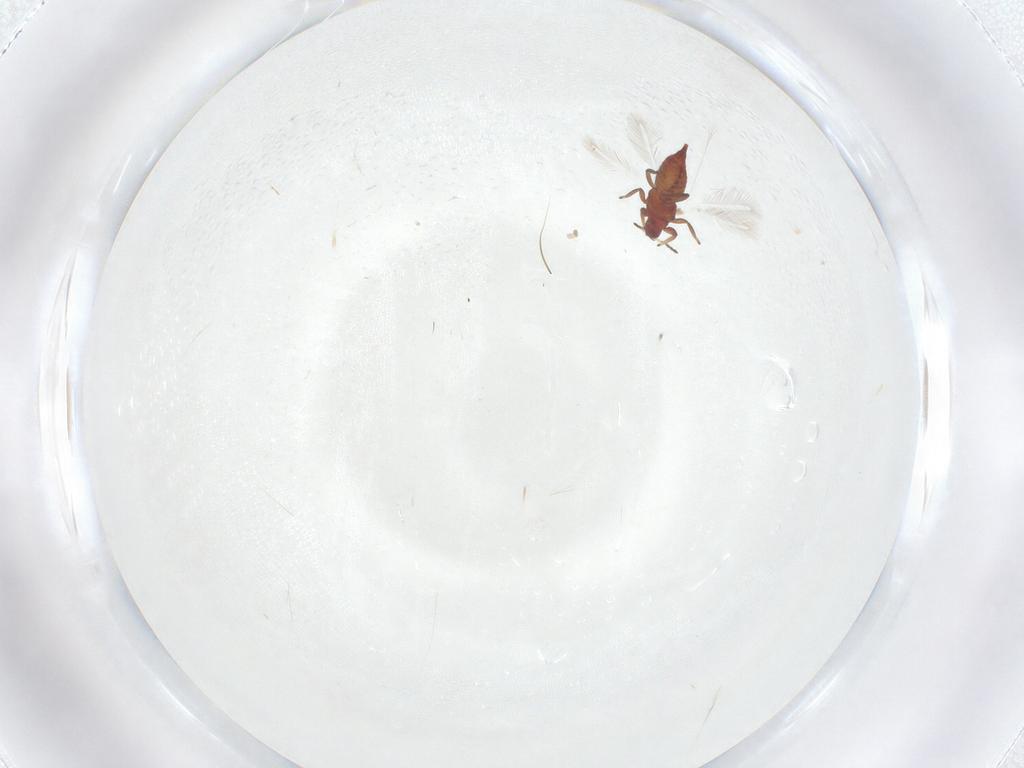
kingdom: Animalia
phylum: Arthropoda
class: Insecta
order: Thysanoptera
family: Phlaeothripidae
